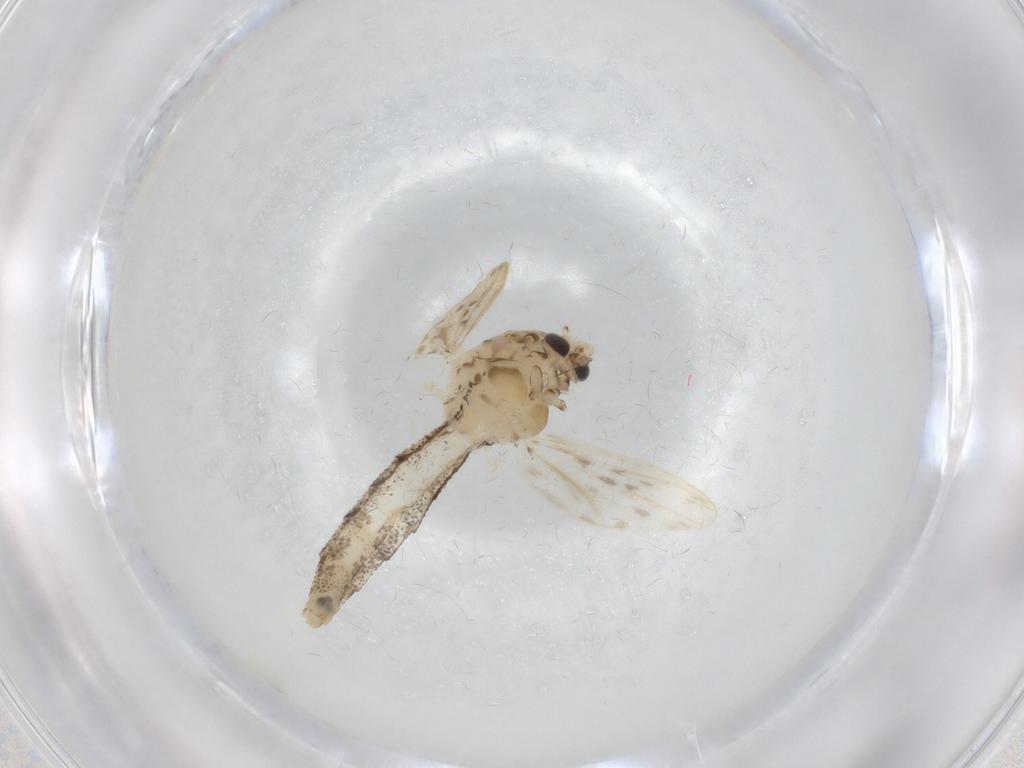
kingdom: Animalia
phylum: Arthropoda
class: Insecta
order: Diptera
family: Chaoboridae
